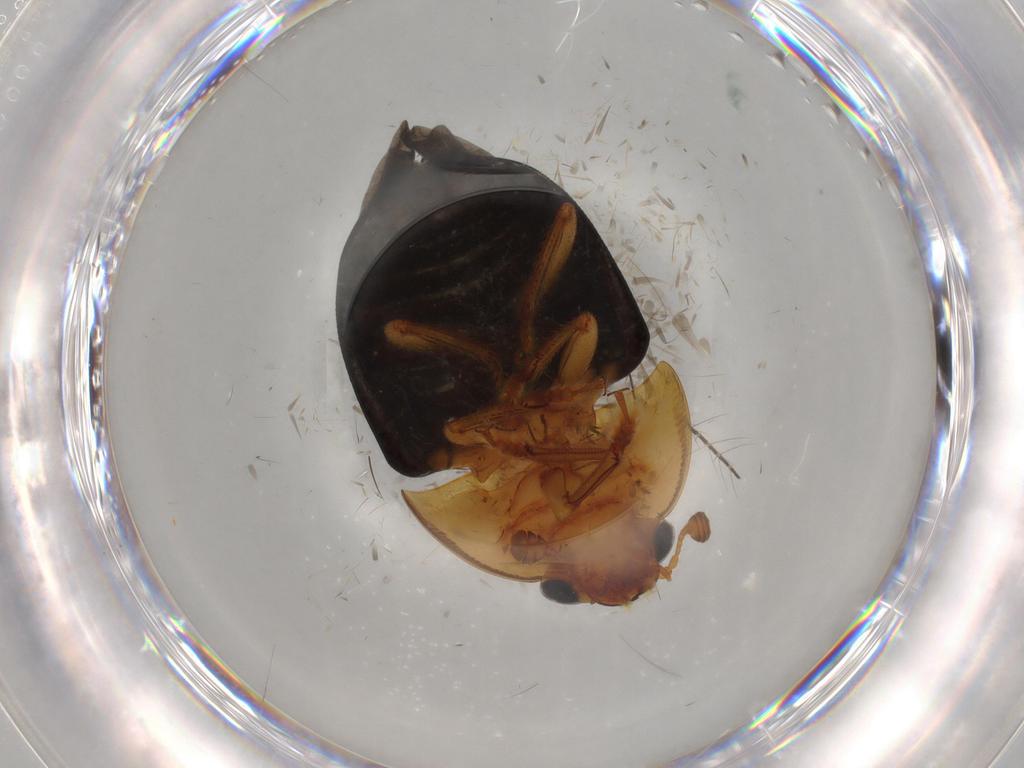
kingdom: Animalia
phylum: Arthropoda
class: Insecta
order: Coleoptera
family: Nitidulidae
